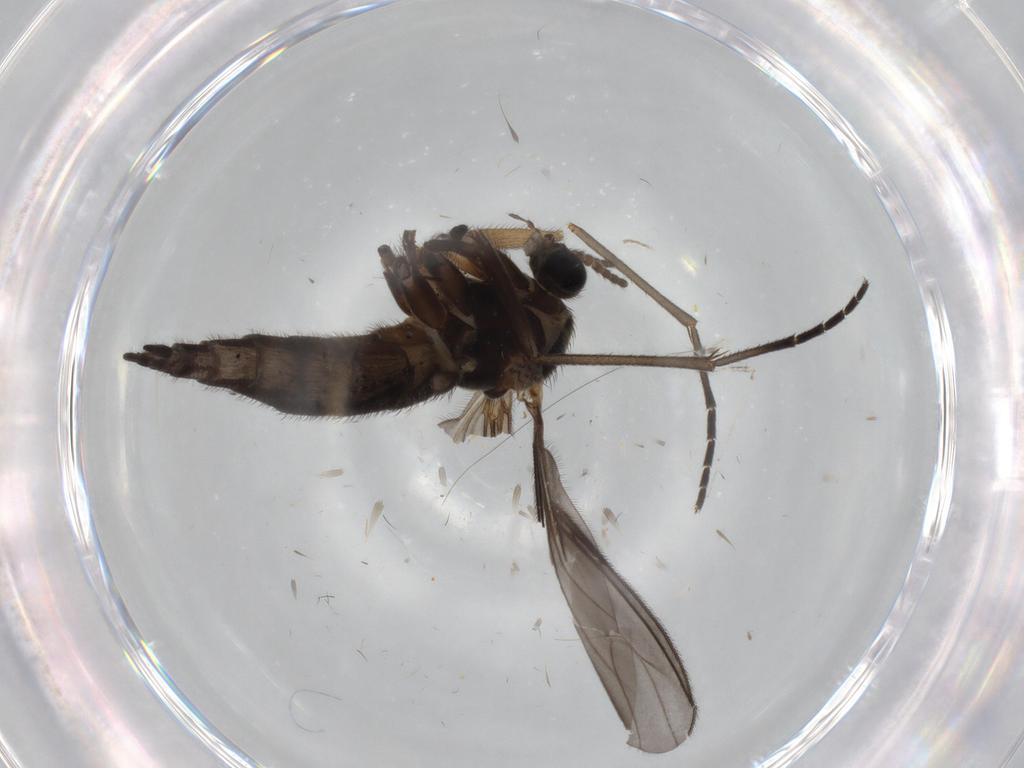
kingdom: Animalia
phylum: Arthropoda
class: Insecta
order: Diptera
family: Sciaridae
